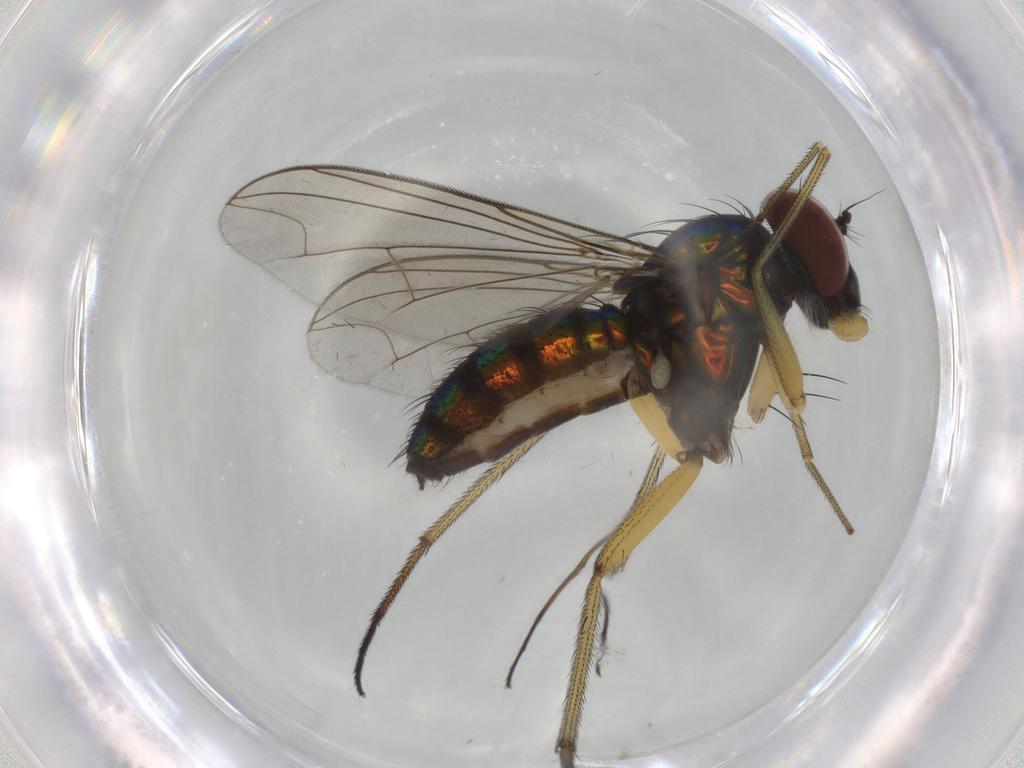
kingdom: Animalia
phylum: Arthropoda
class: Insecta
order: Diptera
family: Dolichopodidae
